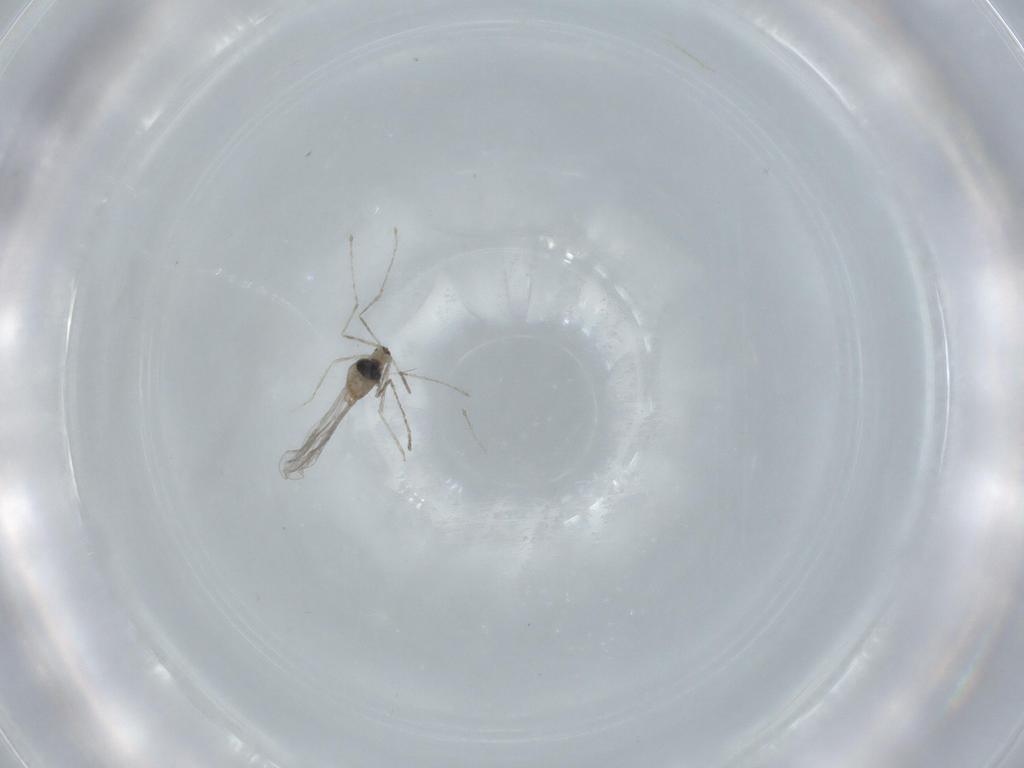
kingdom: Animalia
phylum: Arthropoda
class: Insecta
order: Diptera
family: Cecidomyiidae
